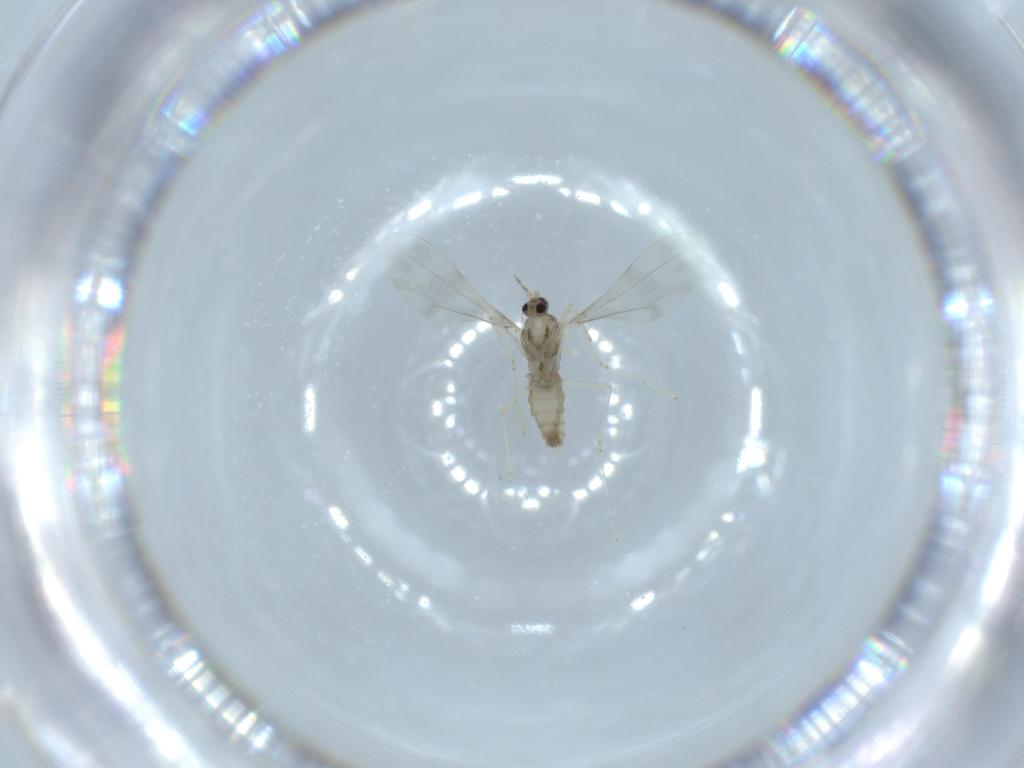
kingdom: Animalia
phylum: Arthropoda
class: Insecta
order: Diptera
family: Cecidomyiidae
